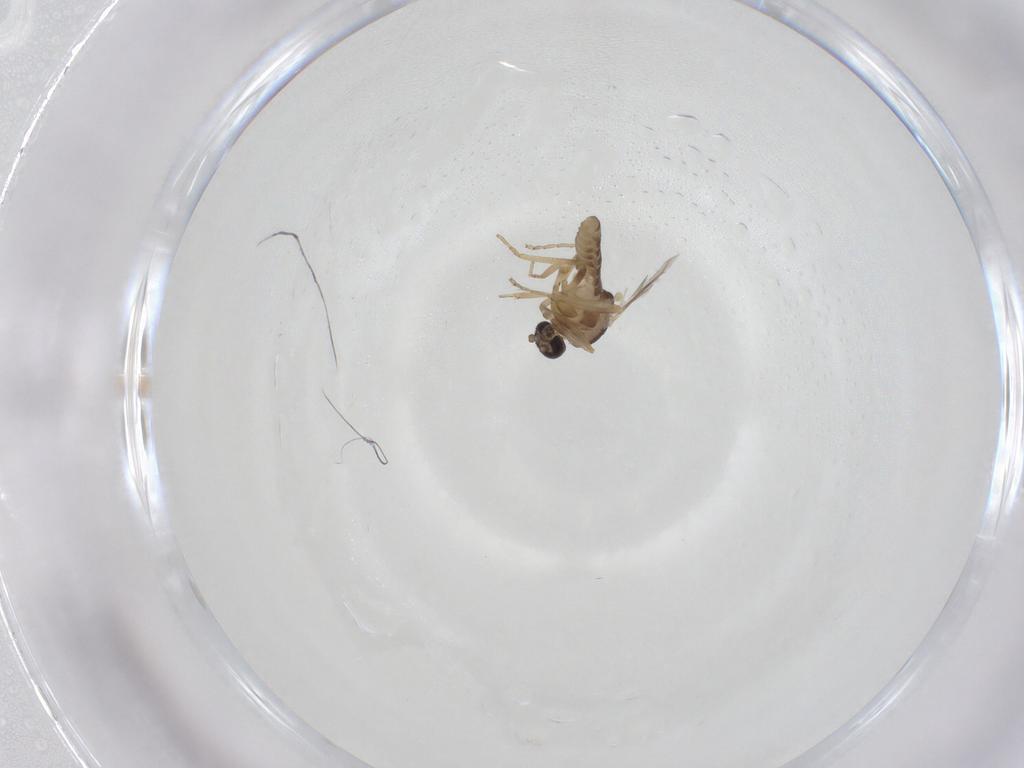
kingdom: Animalia
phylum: Arthropoda
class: Insecta
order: Diptera
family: Ceratopogonidae
